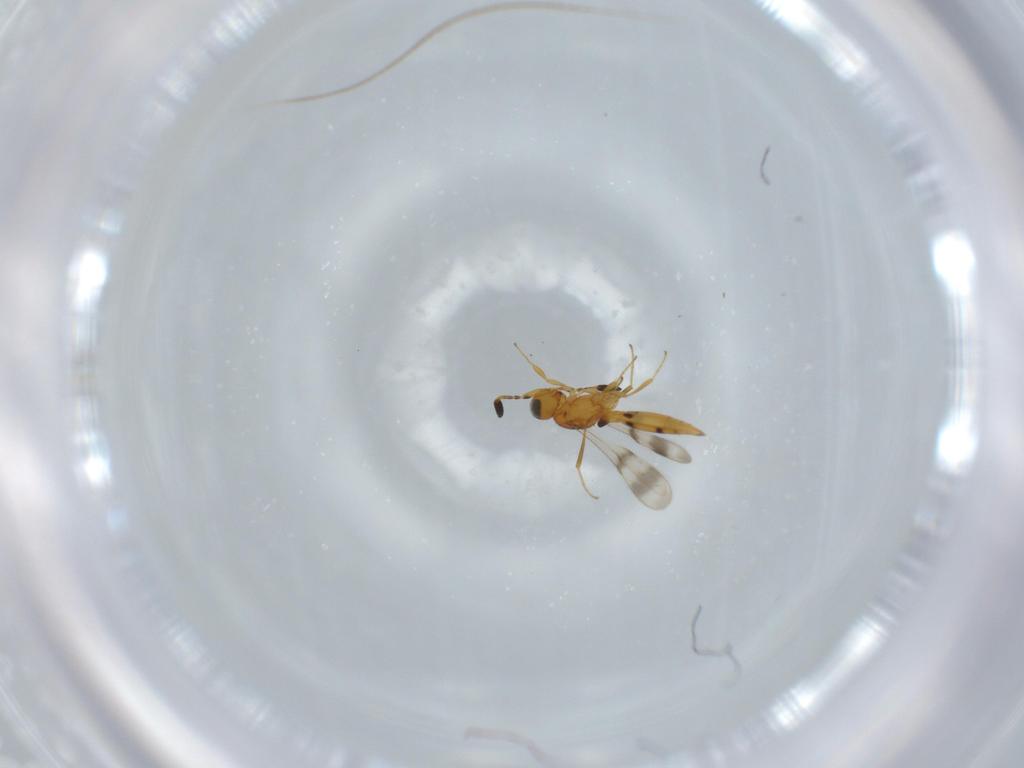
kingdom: Animalia
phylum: Arthropoda
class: Insecta
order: Hymenoptera
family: Scelionidae
